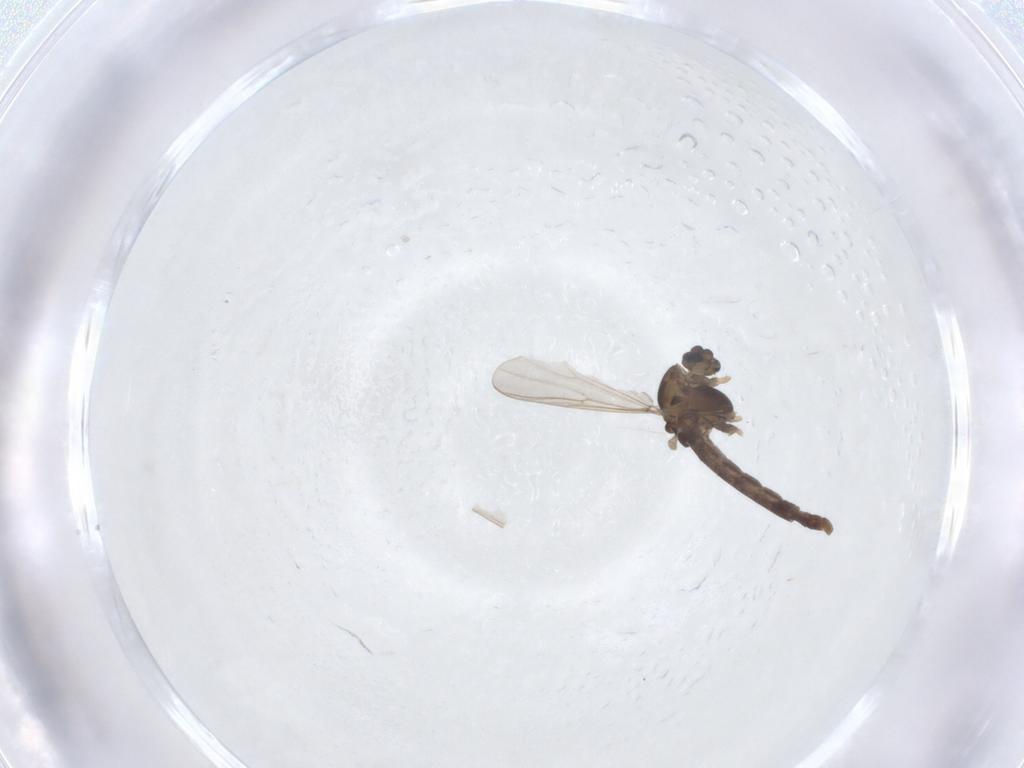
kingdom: Animalia
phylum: Arthropoda
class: Insecta
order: Diptera
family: Chironomidae
